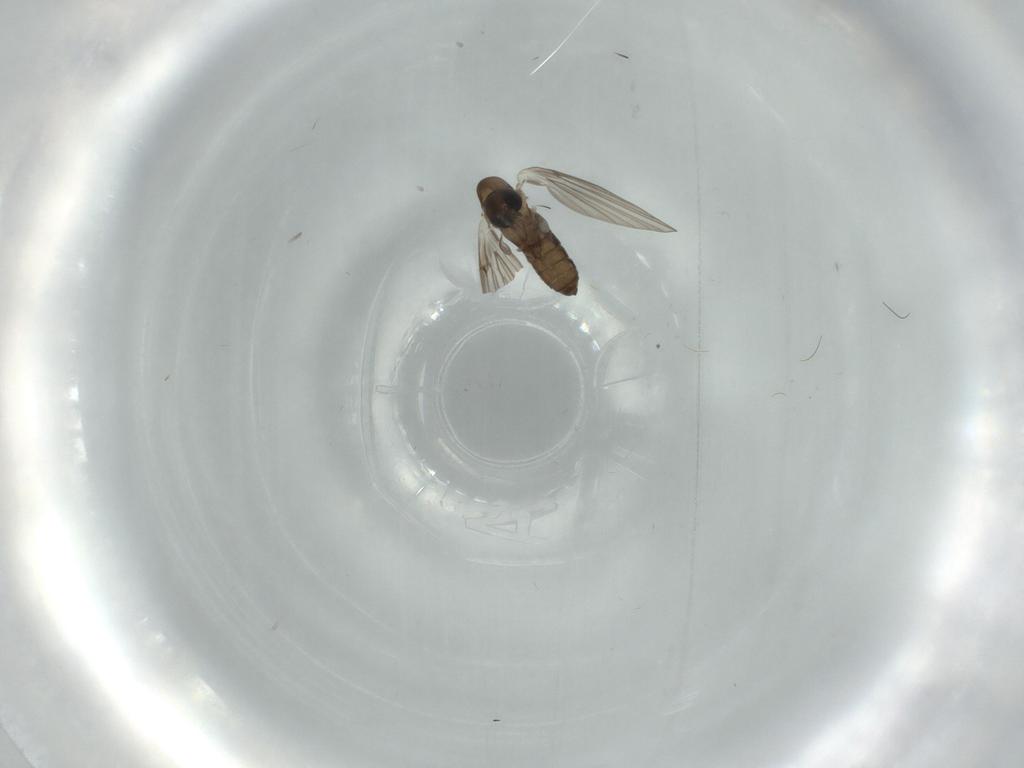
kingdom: Animalia
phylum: Arthropoda
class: Insecta
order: Diptera
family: Psychodidae
